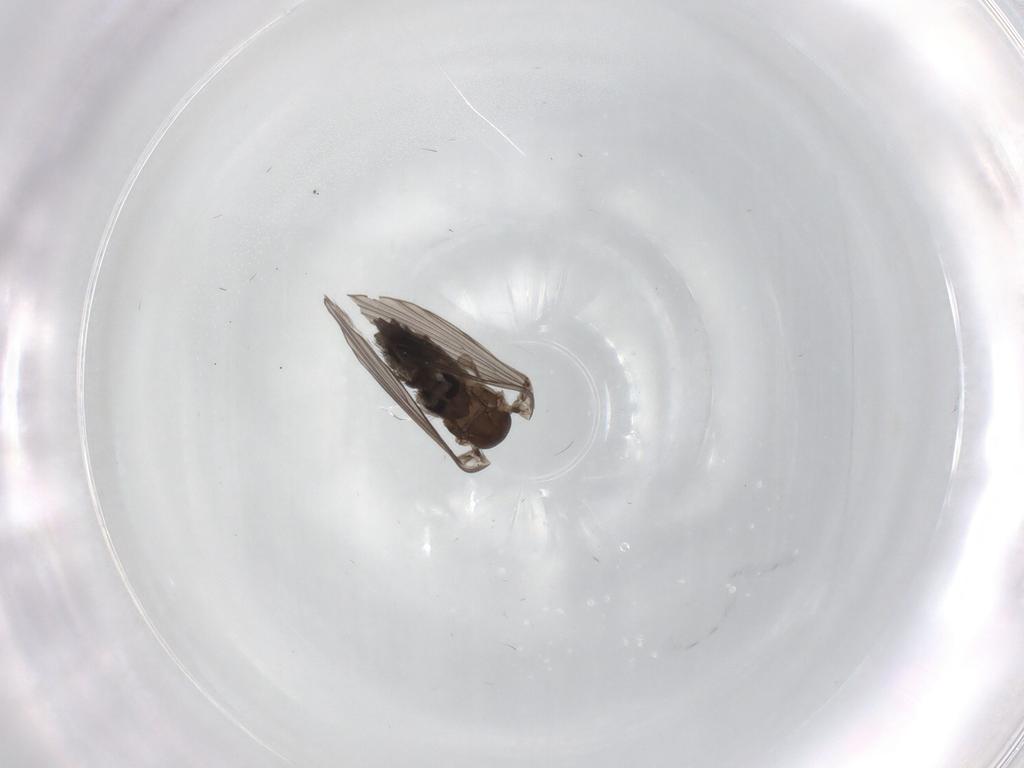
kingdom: Animalia
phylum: Arthropoda
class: Insecta
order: Diptera
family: Psychodidae
